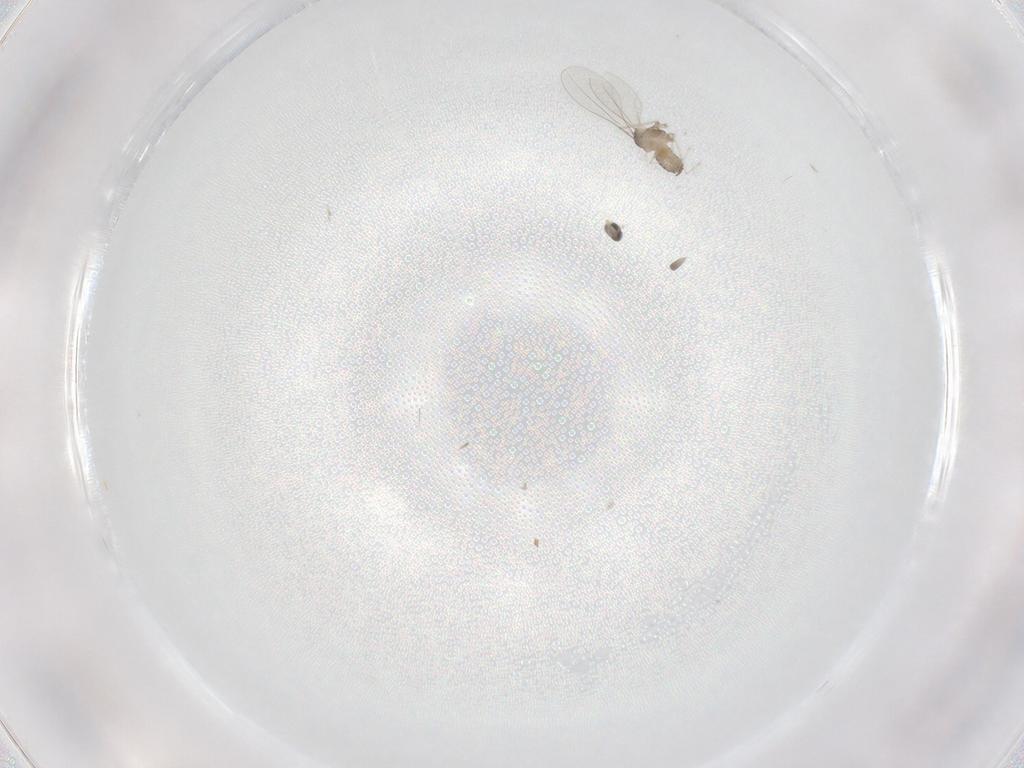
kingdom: Animalia
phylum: Arthropoda
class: Insecta
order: Diptera
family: Cecidomyiidae
